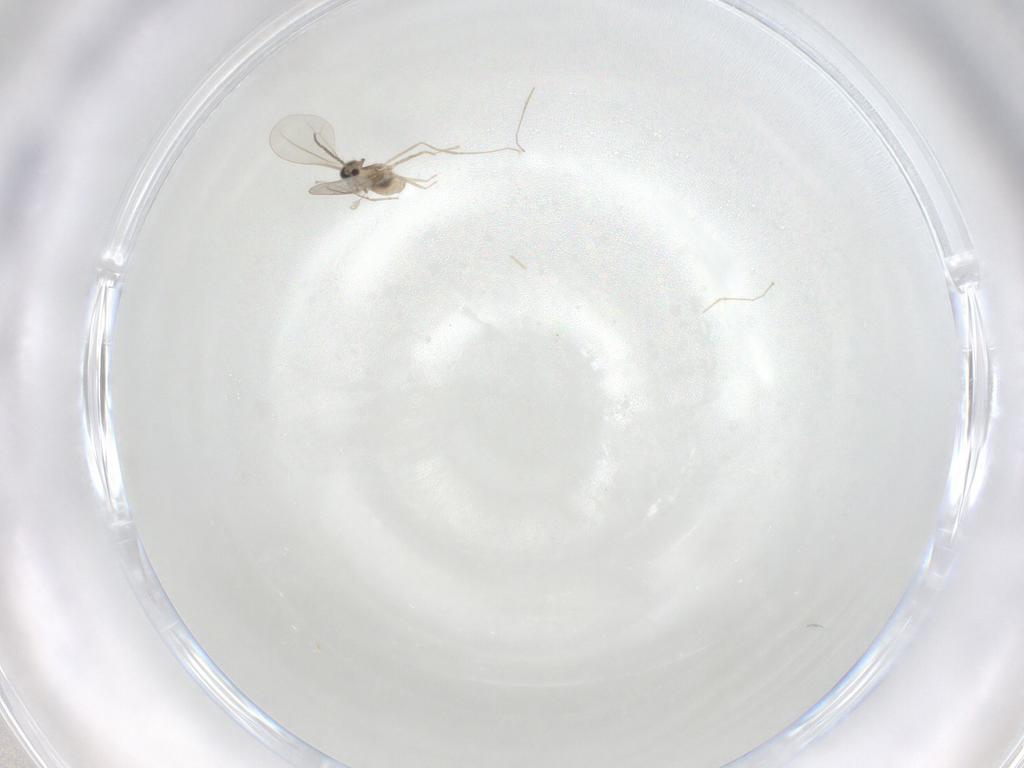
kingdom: Animalia
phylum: Arthropoda
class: Insecta
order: Diptera
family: Cecidomyiidae
